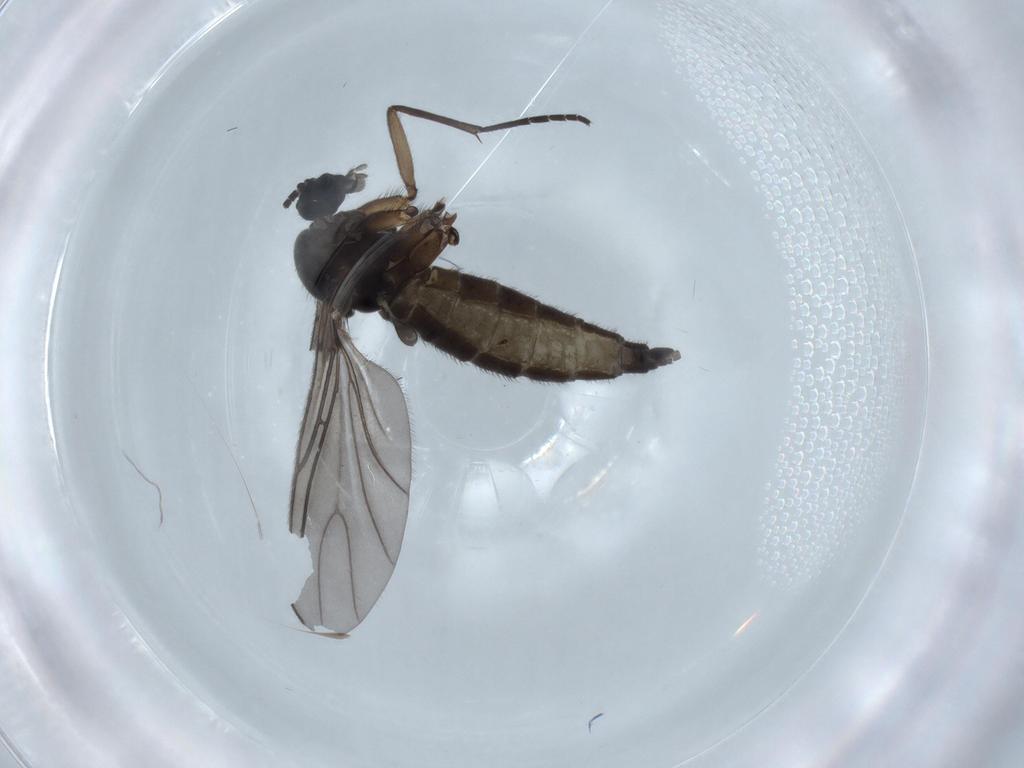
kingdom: Animalia
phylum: Arthropoda
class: Insecta
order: Diptera
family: Sciaridae
